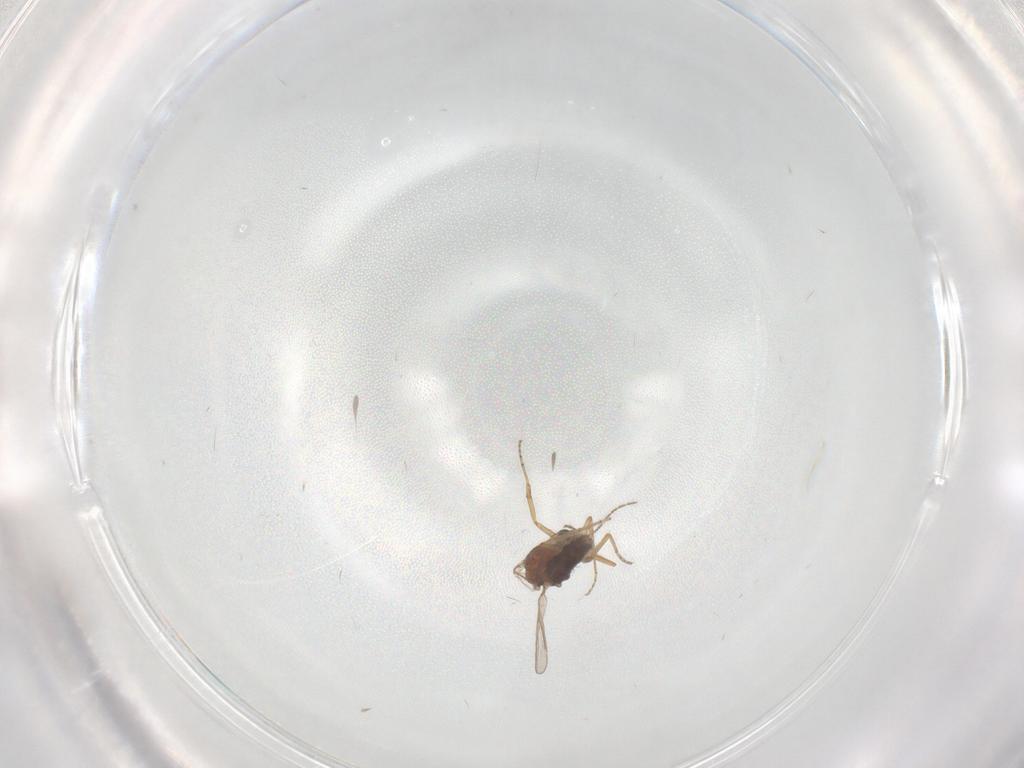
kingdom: Animalia
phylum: Arthropoda
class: Insecta
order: Diptera
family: Ceratopogonidae
